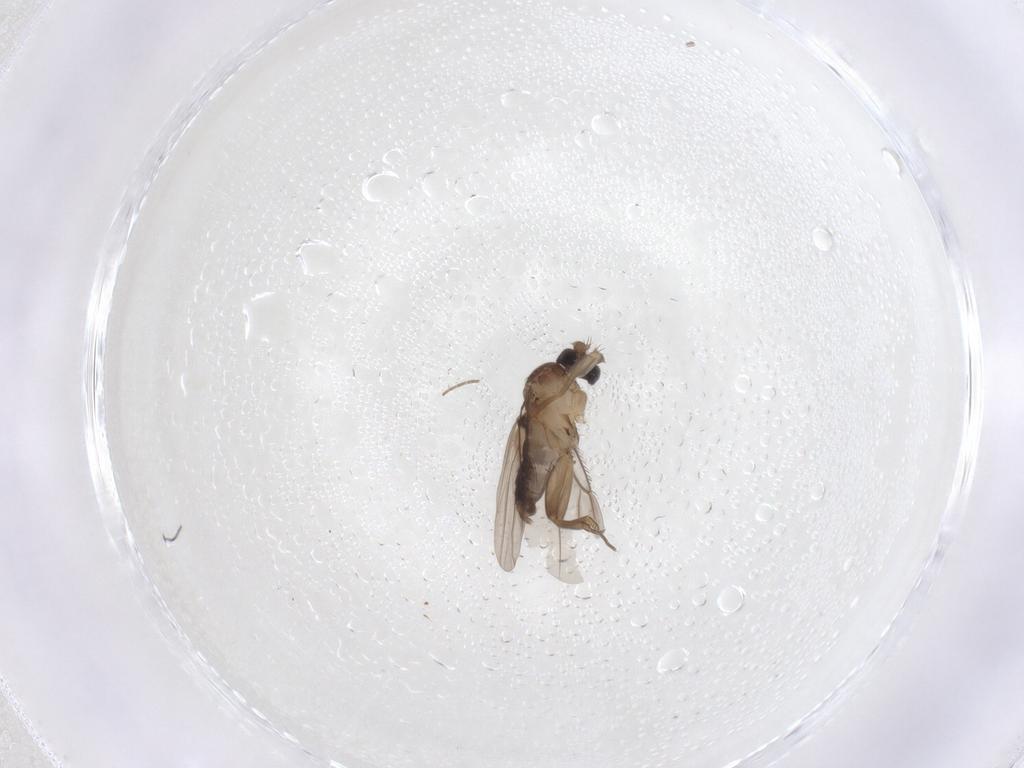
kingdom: Animalia
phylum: Arthropoda
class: Insecta
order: Diptera
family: Phoridae
